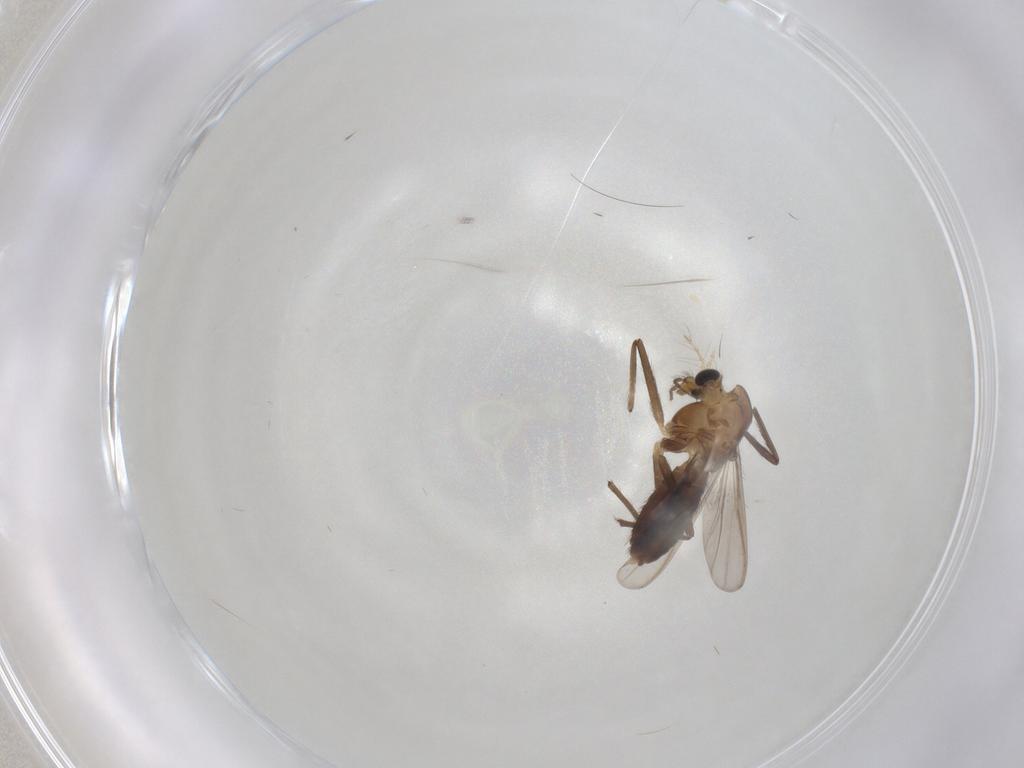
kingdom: Animalia
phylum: Arthropoda
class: Insecta
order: Diptera
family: Chironomidae
